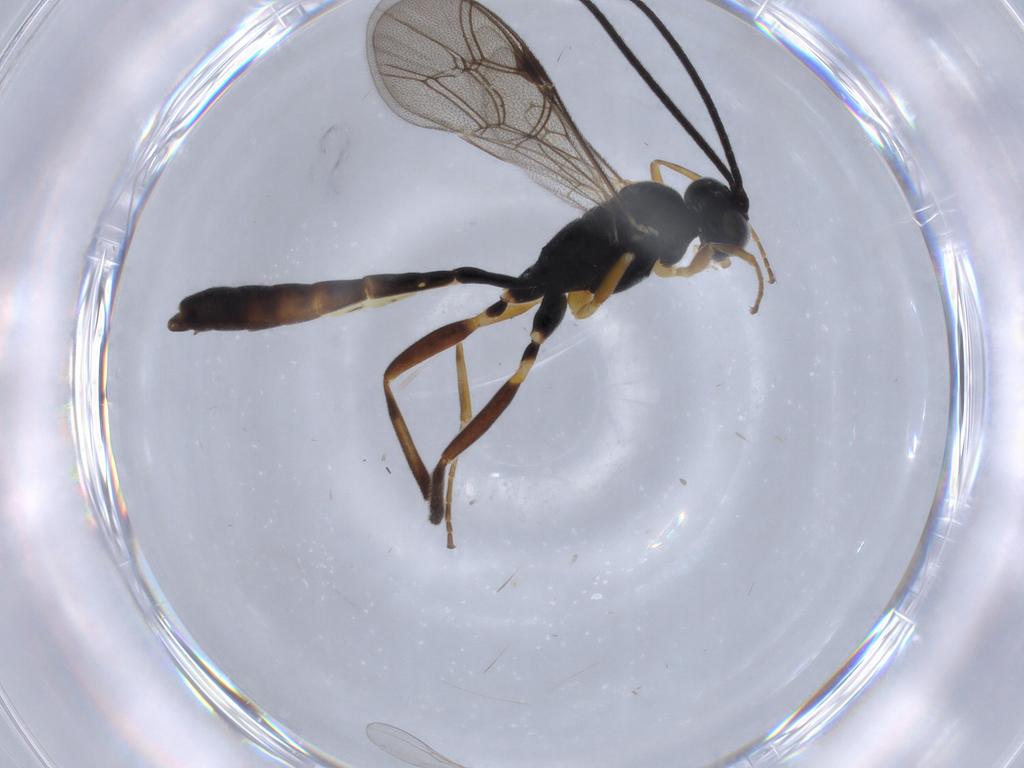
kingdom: Animalia
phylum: Arthropoda
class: Insecta
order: Hymenoptera
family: Ichneumonidae
